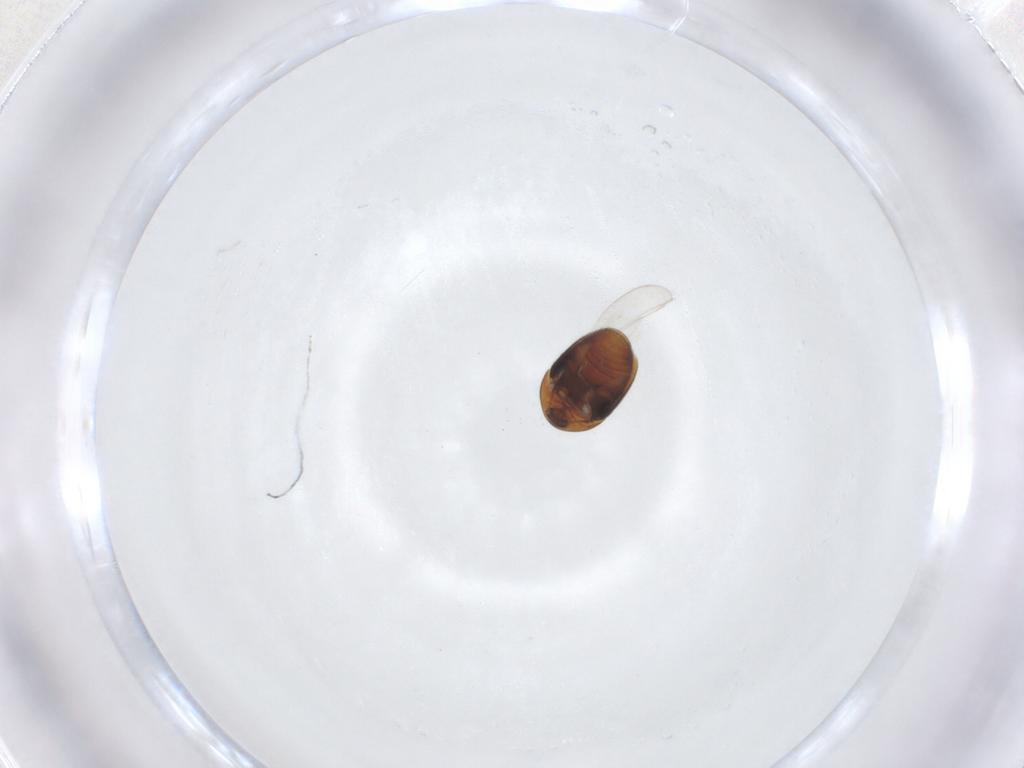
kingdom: Animalia
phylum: Arthropoda
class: Insecta
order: Coleoptera
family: Corylophidae
